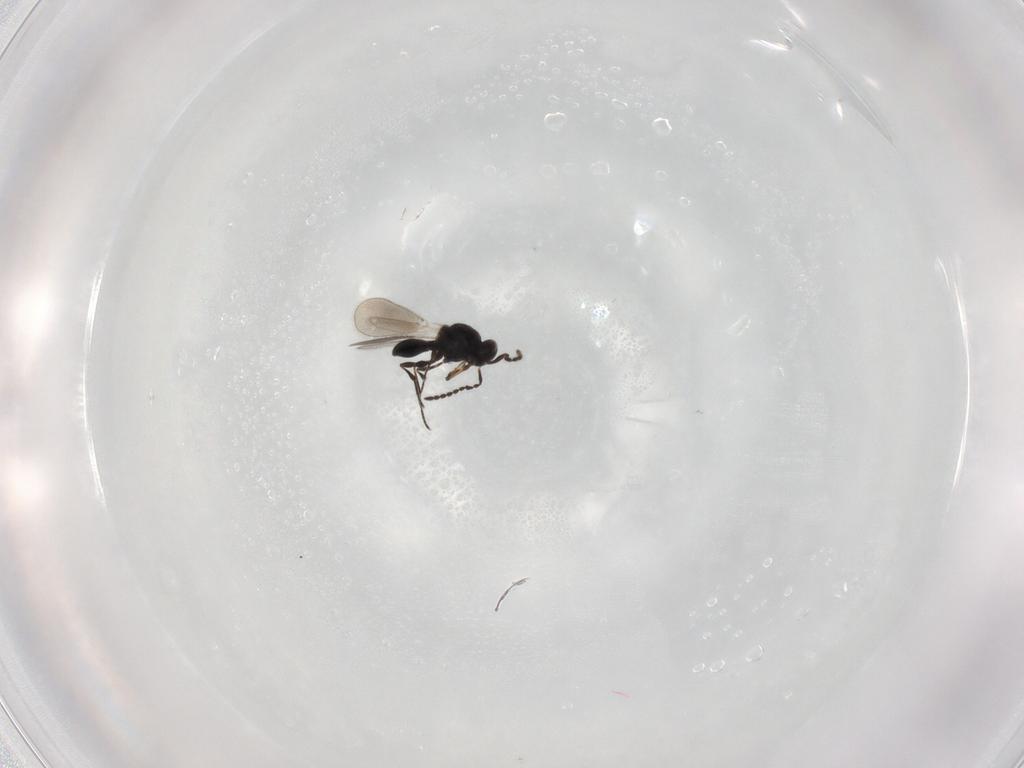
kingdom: Animalia
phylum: Arthropoda
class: Insecta
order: Hymenoptera
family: Platygastridae
